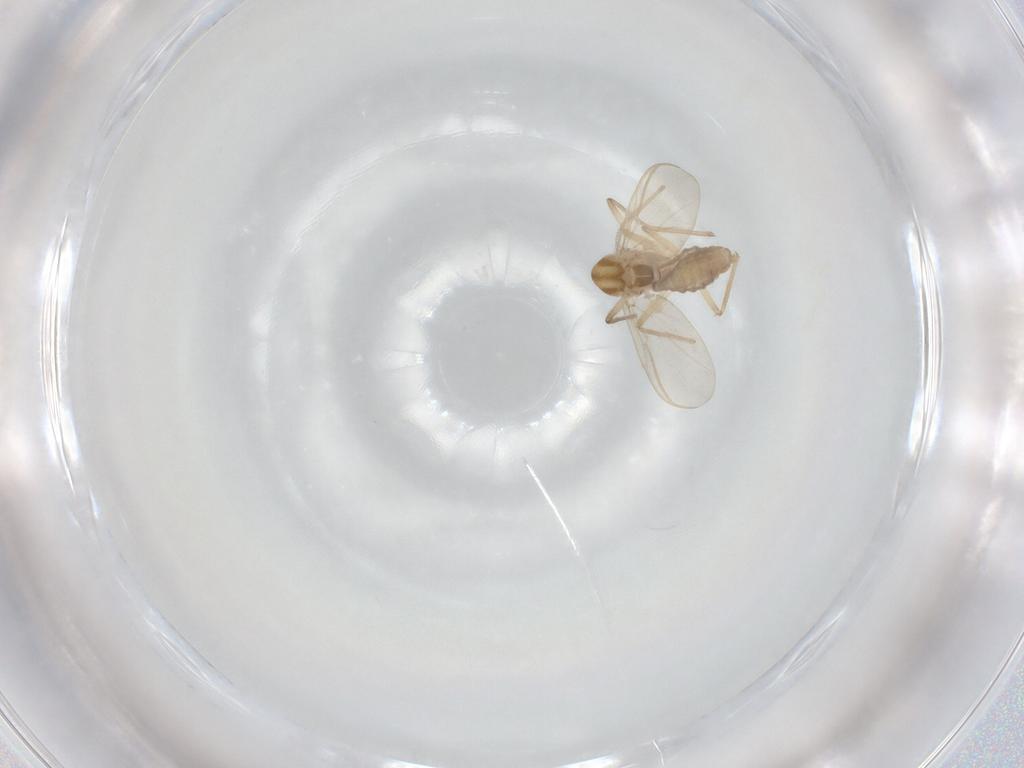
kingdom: Animalia
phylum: Arthropoda
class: Insecta
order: Diptera
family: Chironomidae
